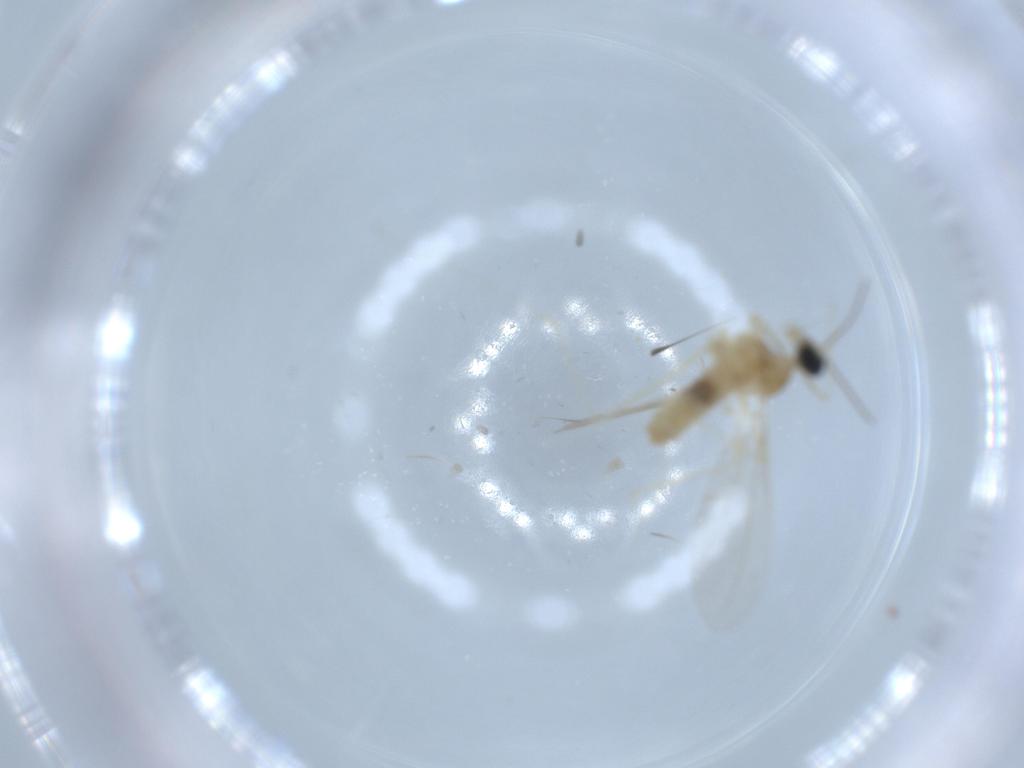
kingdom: Animalia
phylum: Arthropoda
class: Insecta
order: Diptera
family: Cecidomyiidae
